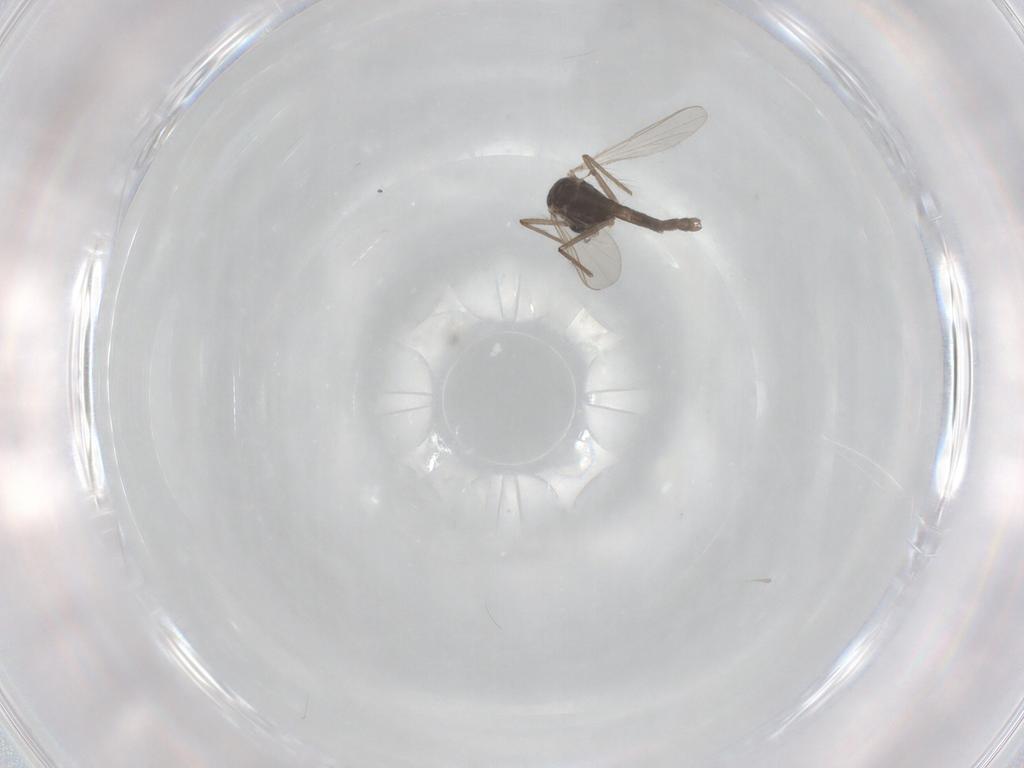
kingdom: Animalia
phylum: Arthropoda
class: Insecta
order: Diptera
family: Chironomidae
